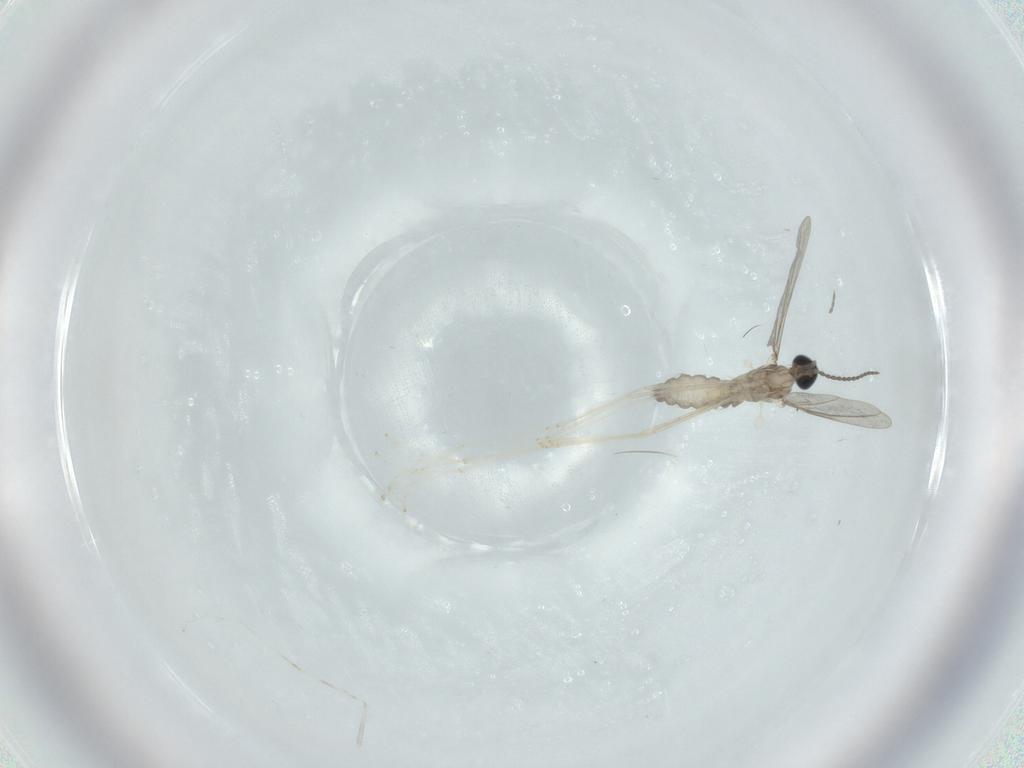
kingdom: Animalia
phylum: Arthropoda
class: Insecta
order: Diptera
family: Cecidomyiidae
